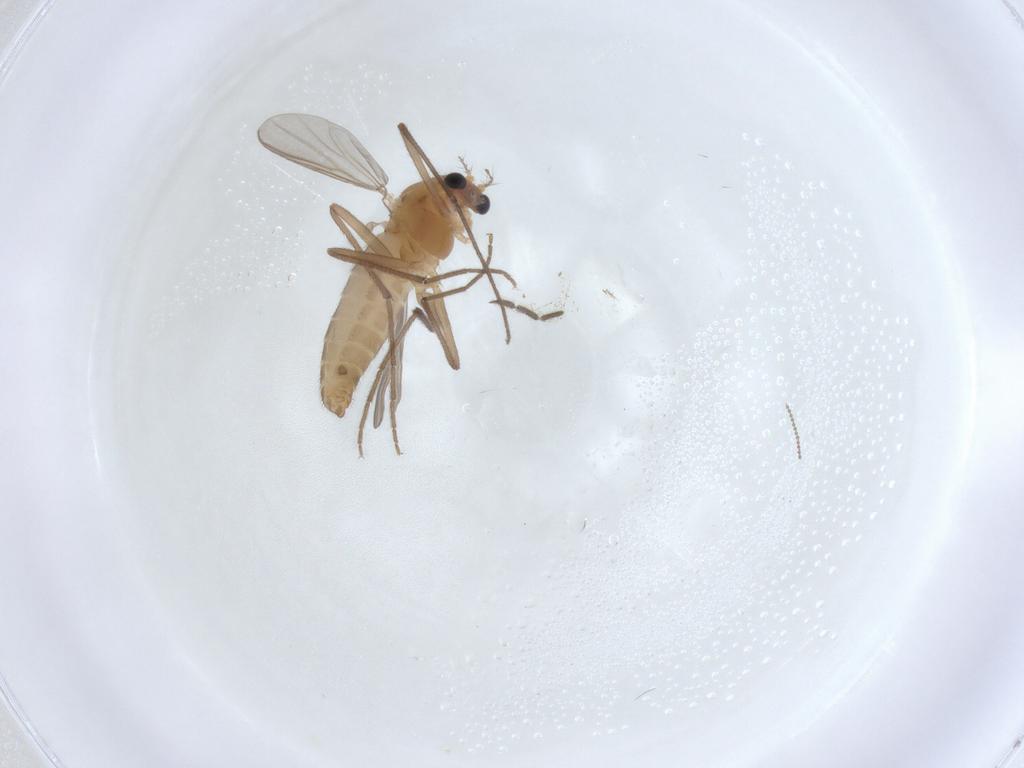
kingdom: Animalia
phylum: Arthropoda
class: Insecta
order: Diptera
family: Chironomidae
